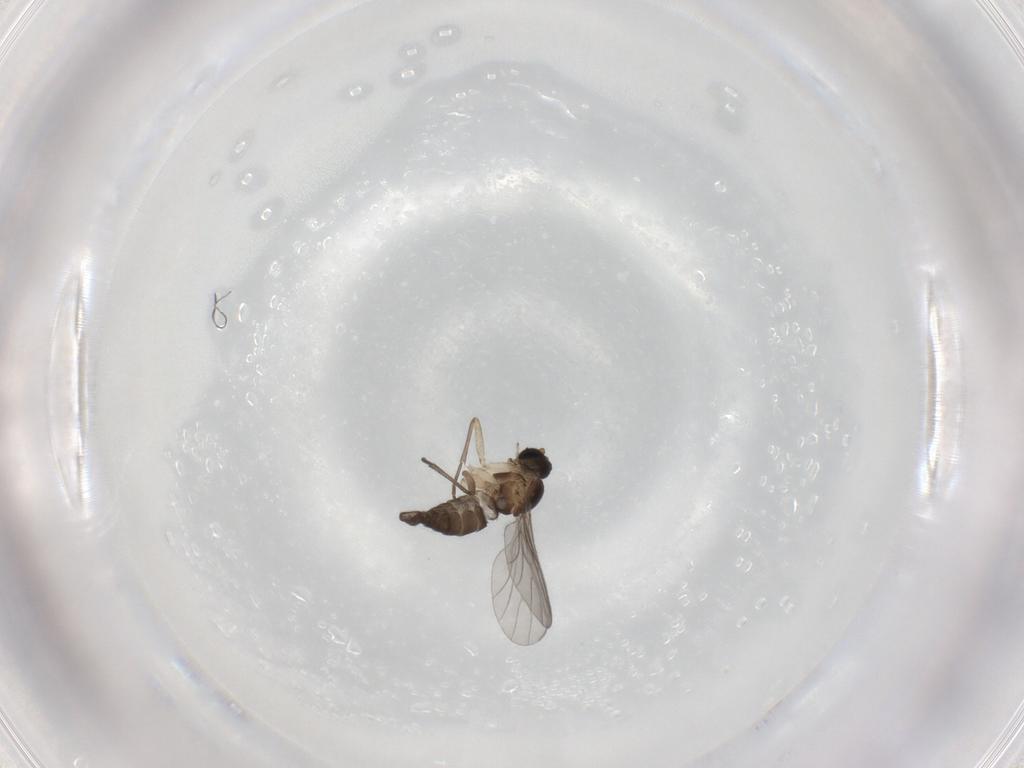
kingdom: Animalia
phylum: Arthropoda
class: Insecta
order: Diptera
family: Sciaridae
